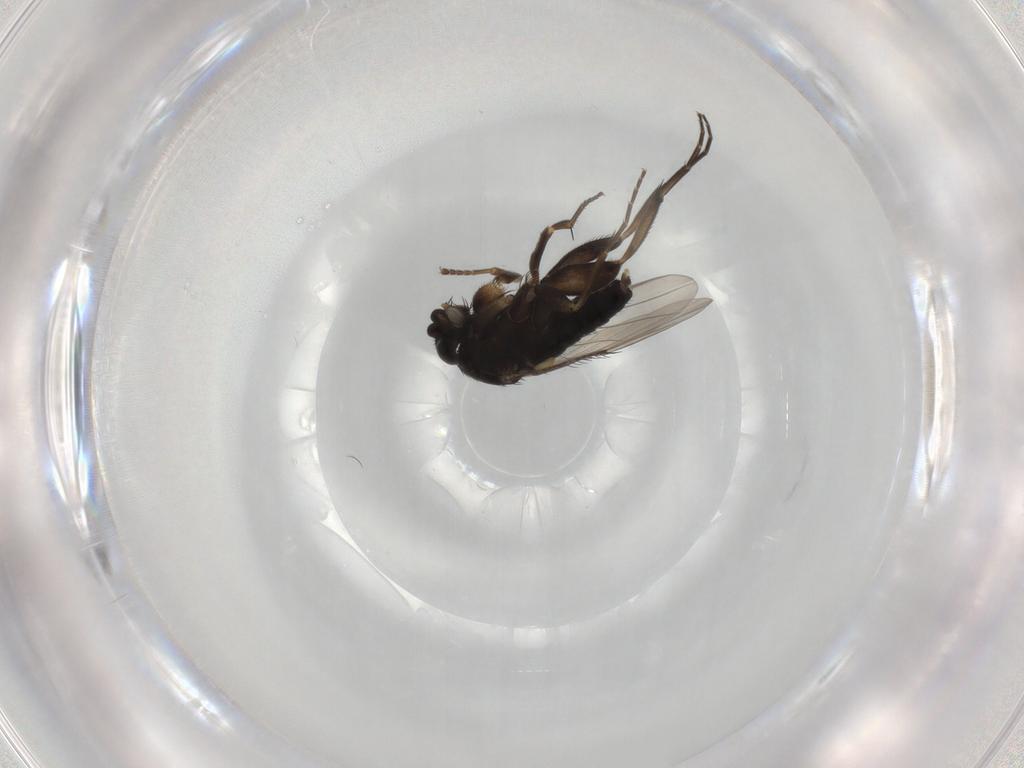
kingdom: Animalia
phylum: Arthropoda
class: Insecta
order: Diptera
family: Phoridae
